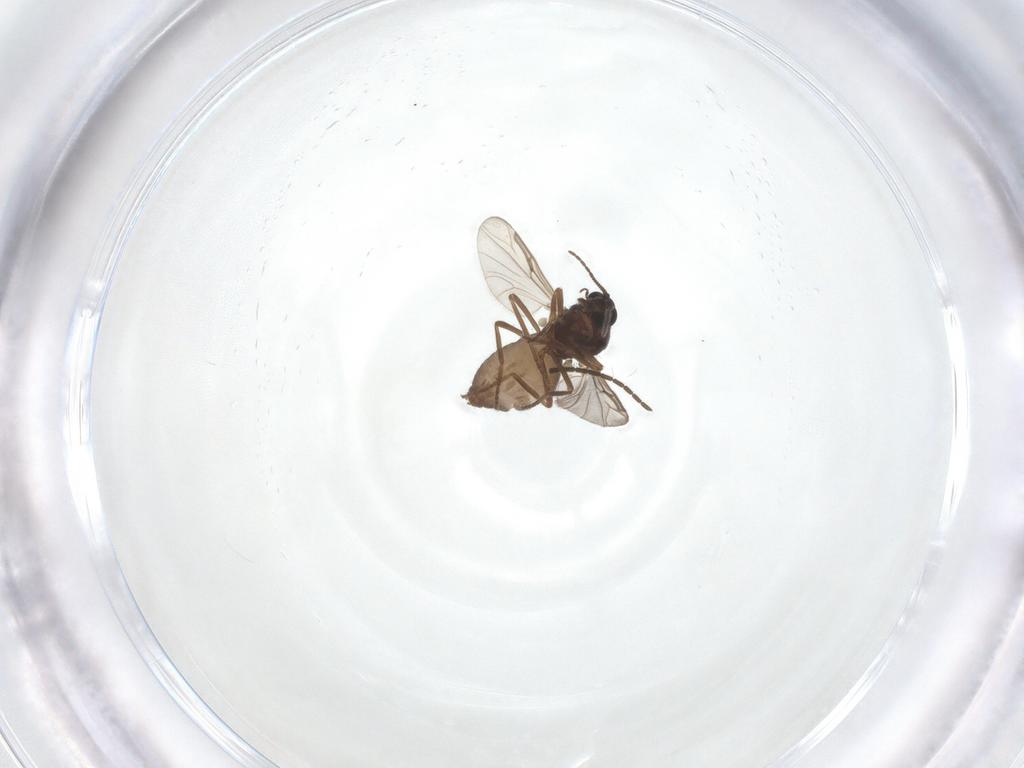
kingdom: Animalia
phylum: Arthropoda
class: Insecta
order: Diptera
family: Ceratopogonidae
